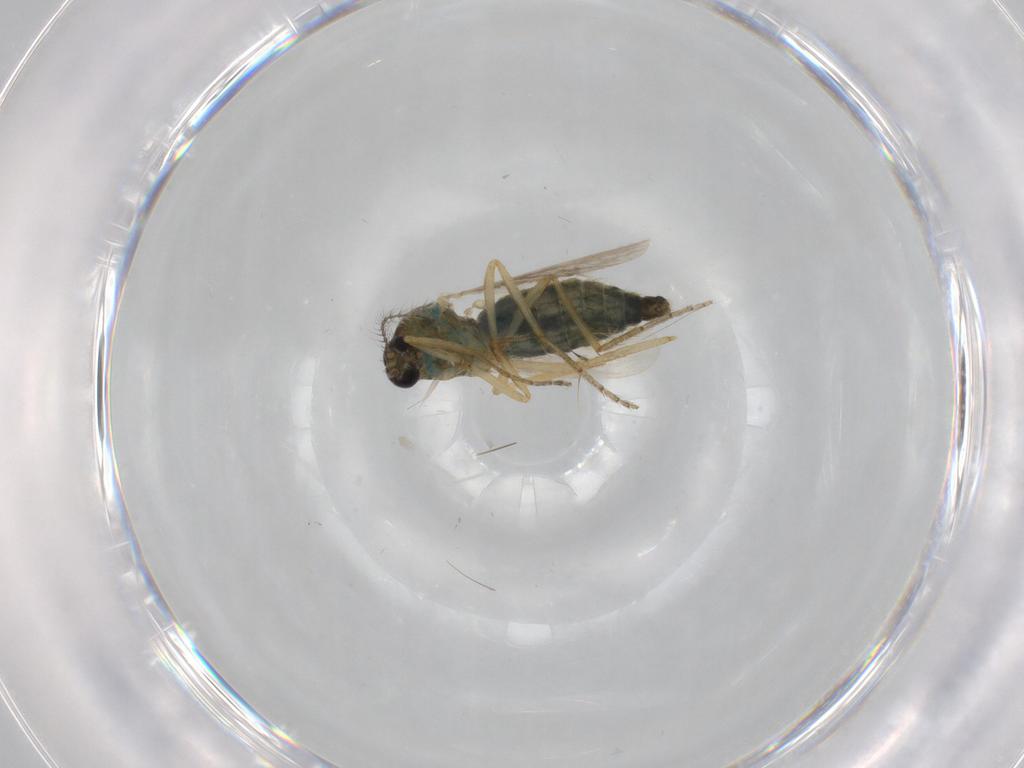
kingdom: Animalia
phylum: Arthropoda
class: Insecta
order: Diptera
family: Ceratopogonidae
